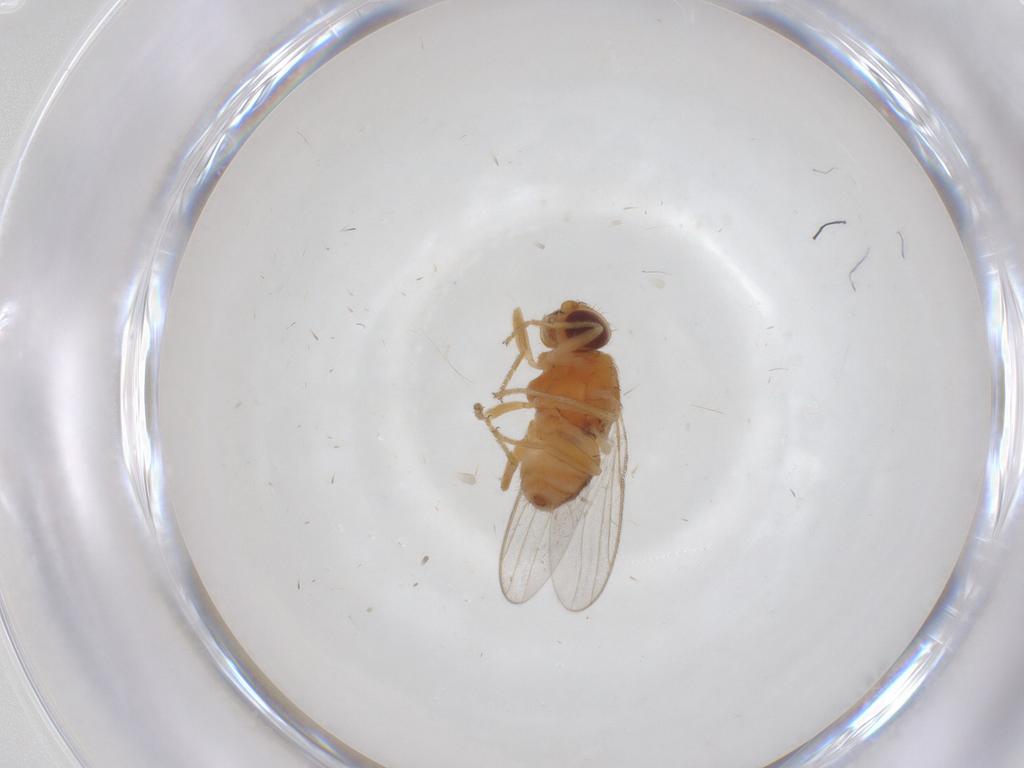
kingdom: Animalia
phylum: Arthropoda
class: Insecta
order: Diptera
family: Chloropidae
